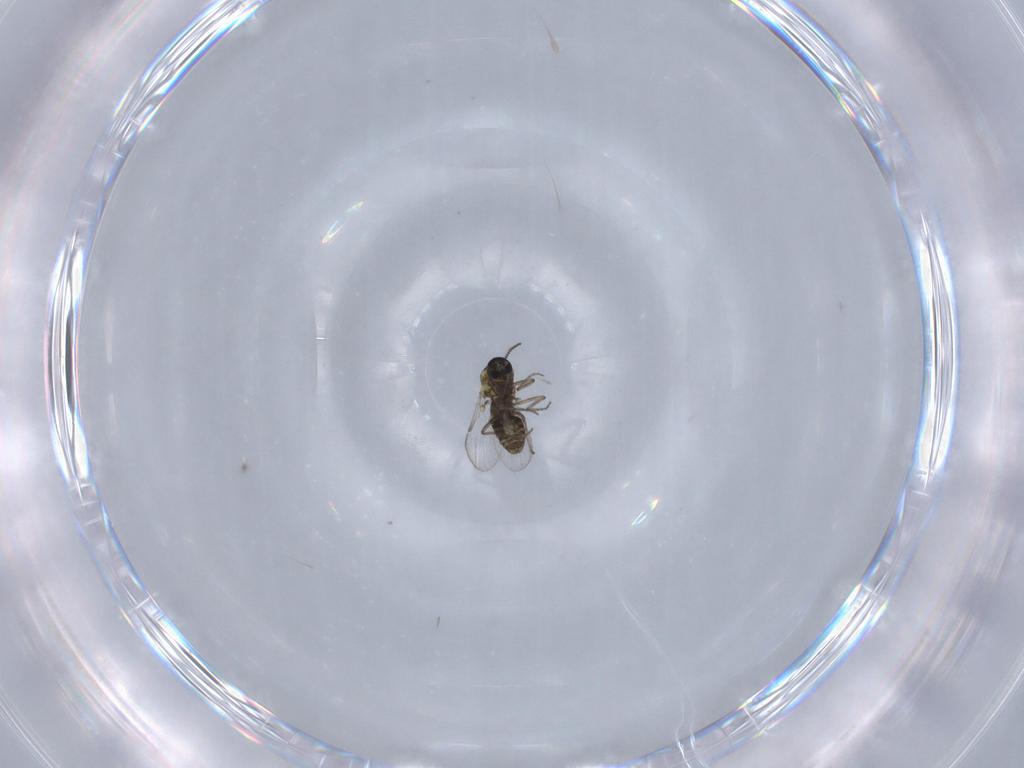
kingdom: Animalia
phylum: Arthropoda
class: Insecta
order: Diptera
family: Ceratopogonidae
